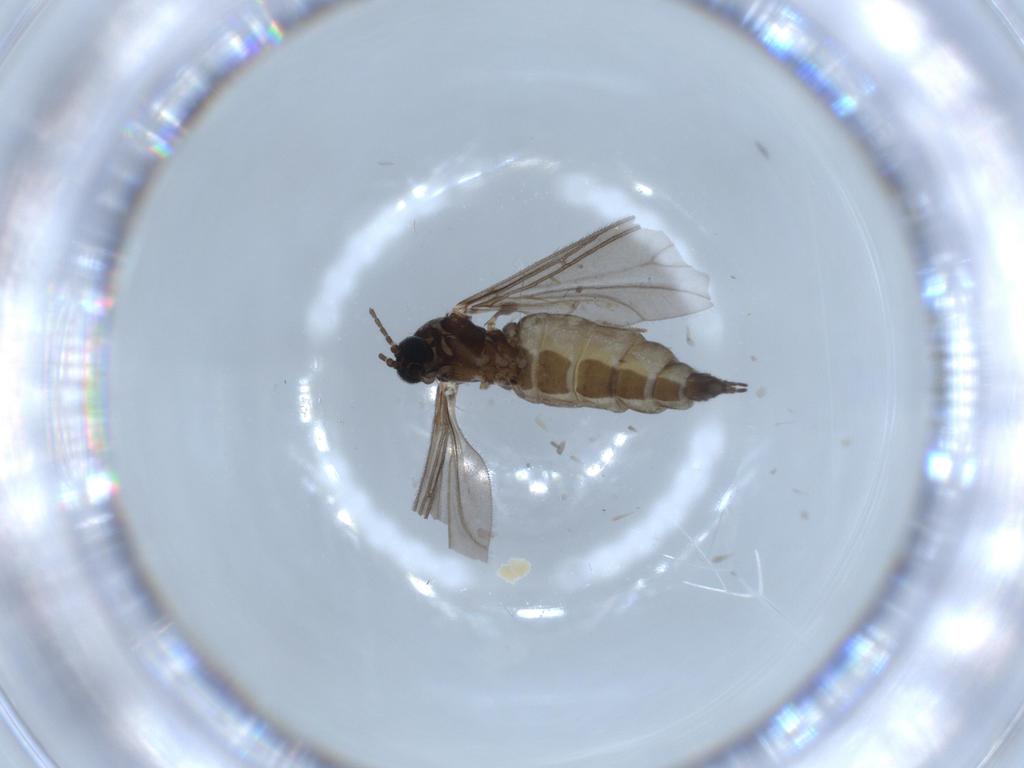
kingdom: Animalia
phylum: Arthropoda
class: Insecta
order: Diptera
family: Sciaridae
